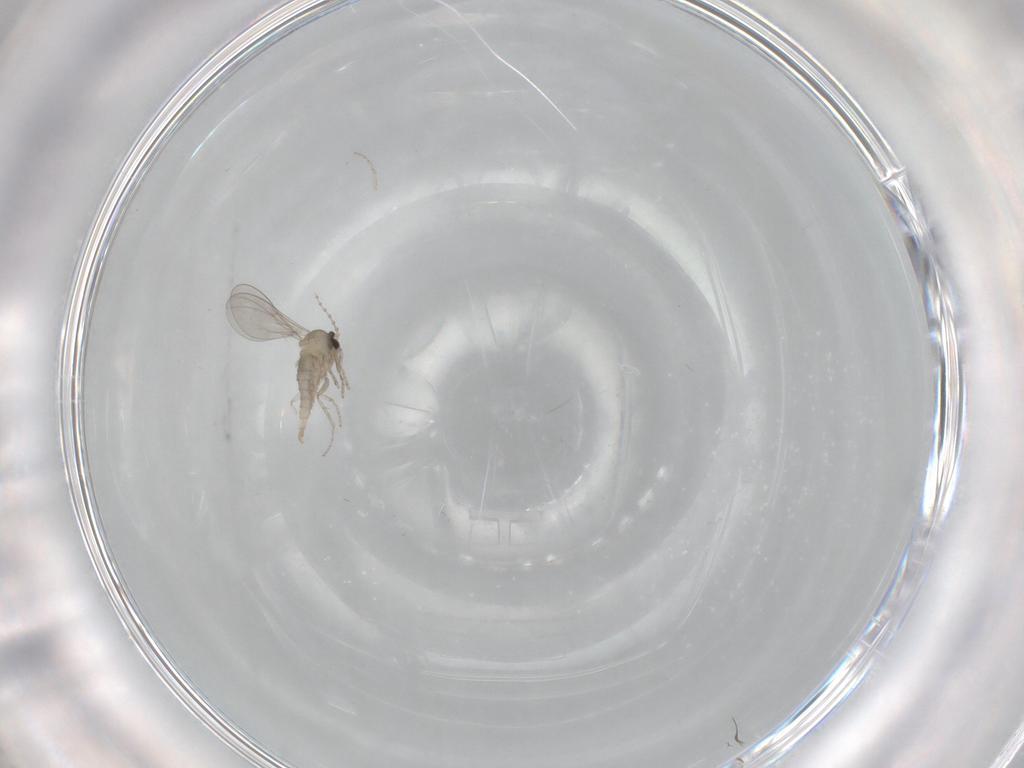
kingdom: Animalia
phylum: Arthropoda
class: Insecta
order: Diptera
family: Cecidomyiidae
